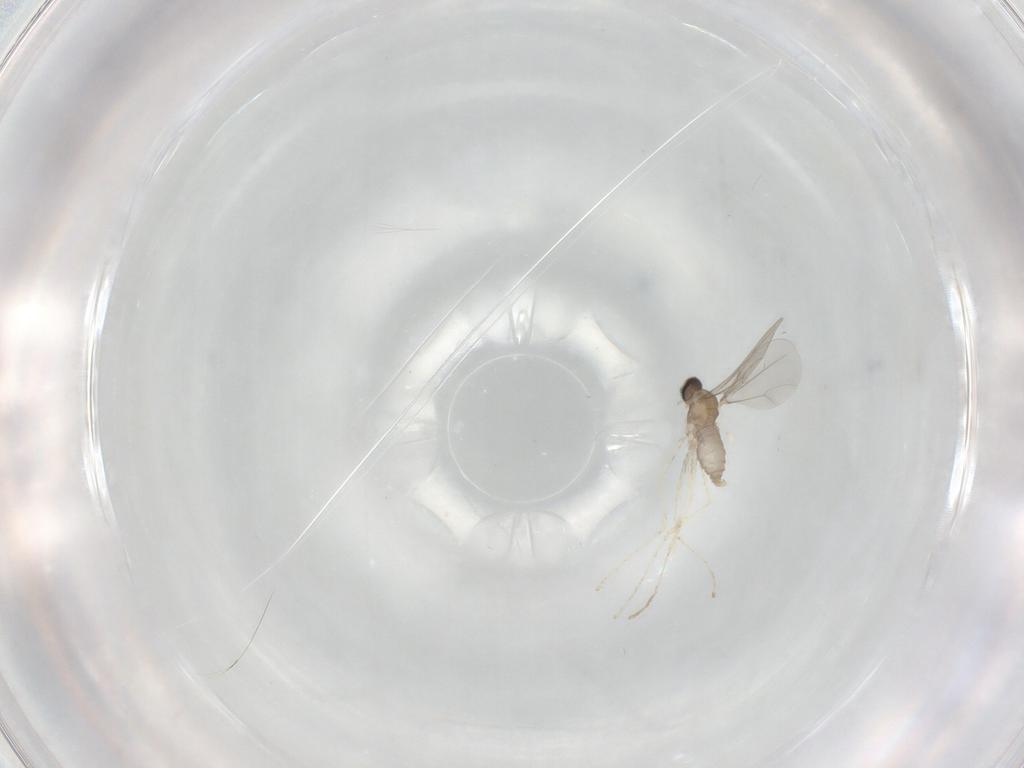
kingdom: Animalia
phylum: Arthropoda
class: Insecta
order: Diptera
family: Cecidomyiidae
